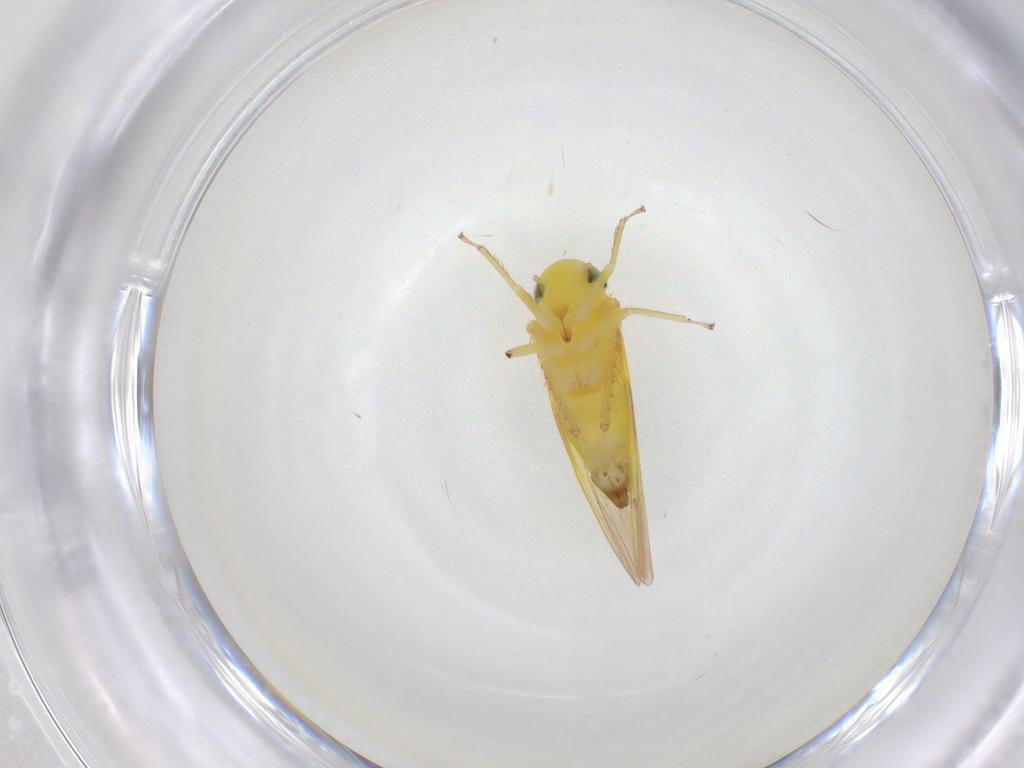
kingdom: Animalia
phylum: Arthropoda
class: Insecta
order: Hemiptera
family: Cicadellidae
